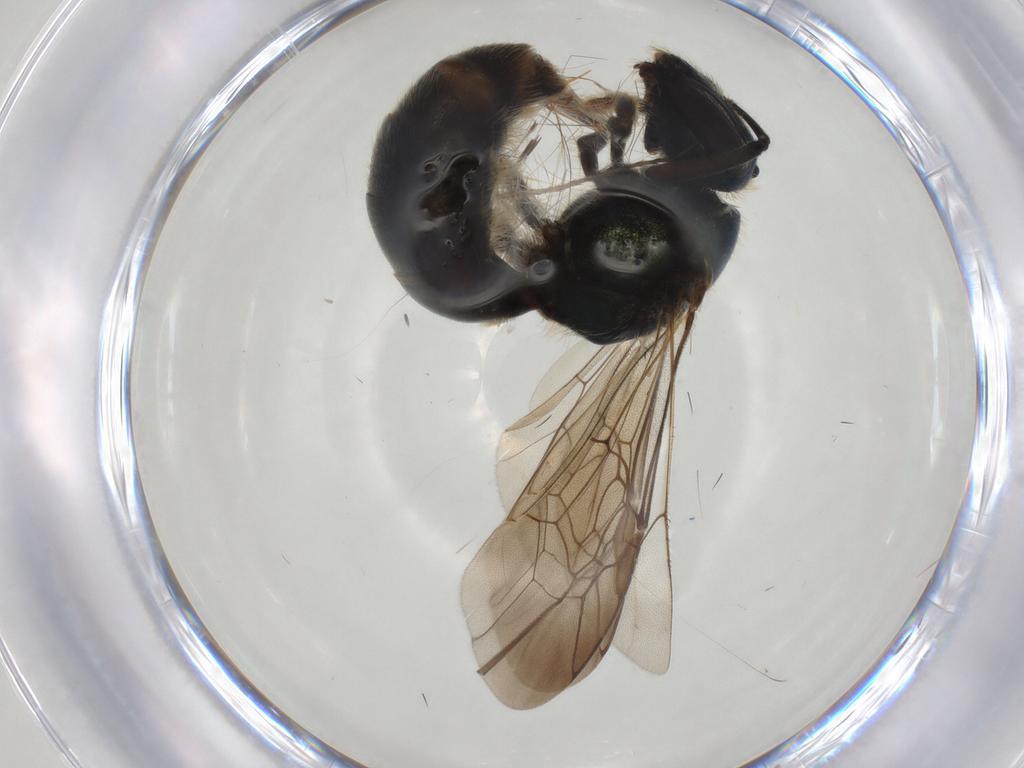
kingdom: Animalia
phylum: Arthropoda
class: Insecta
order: Hymenoptera
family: Halictidae
